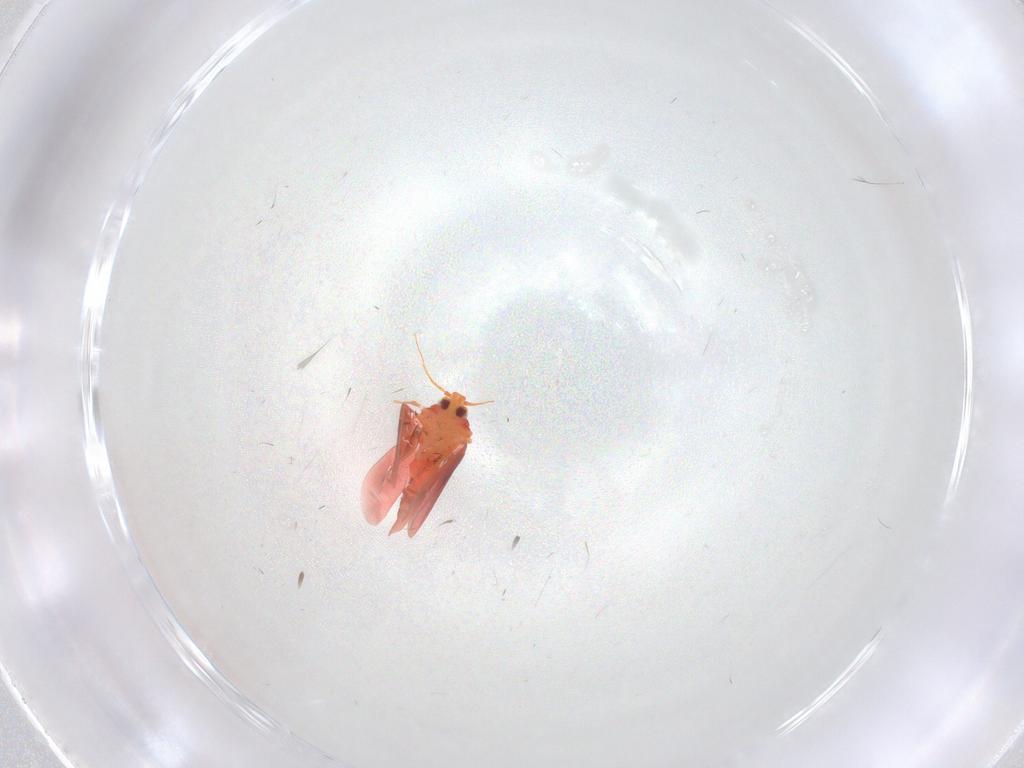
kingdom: Animalia
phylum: Arthropoda
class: Insecta
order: Hemiptera
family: Aleyrodidae
